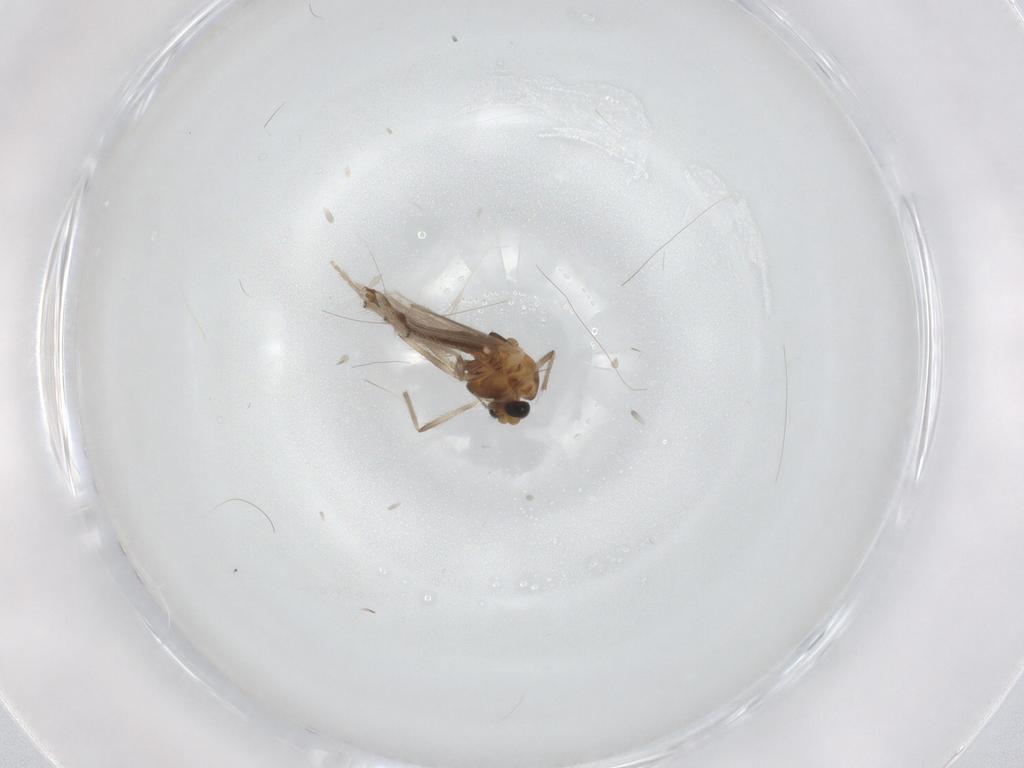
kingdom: Animalia
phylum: Arthropoda
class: Insecta
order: Diptera
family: Chironomidae
